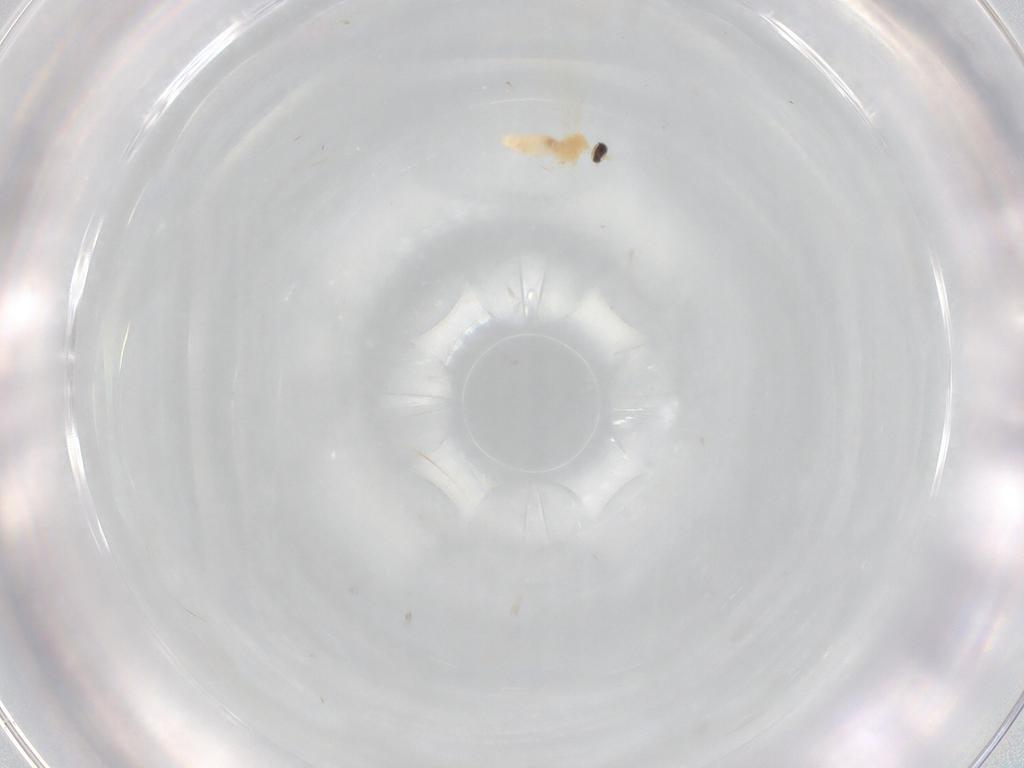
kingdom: Animalia
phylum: Arthropoda
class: Insecta
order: Diptera
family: Cecidomyiidae
